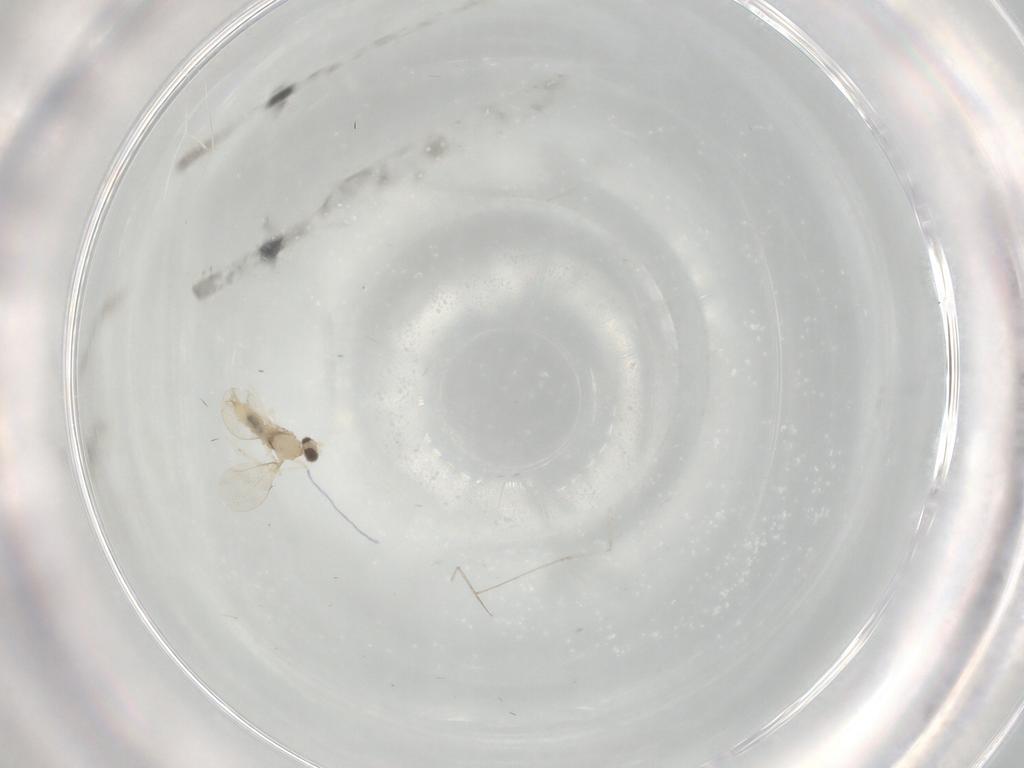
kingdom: Animalia
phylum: Arthropoda
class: Insecta
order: Diptera
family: Cecidomyiidae
